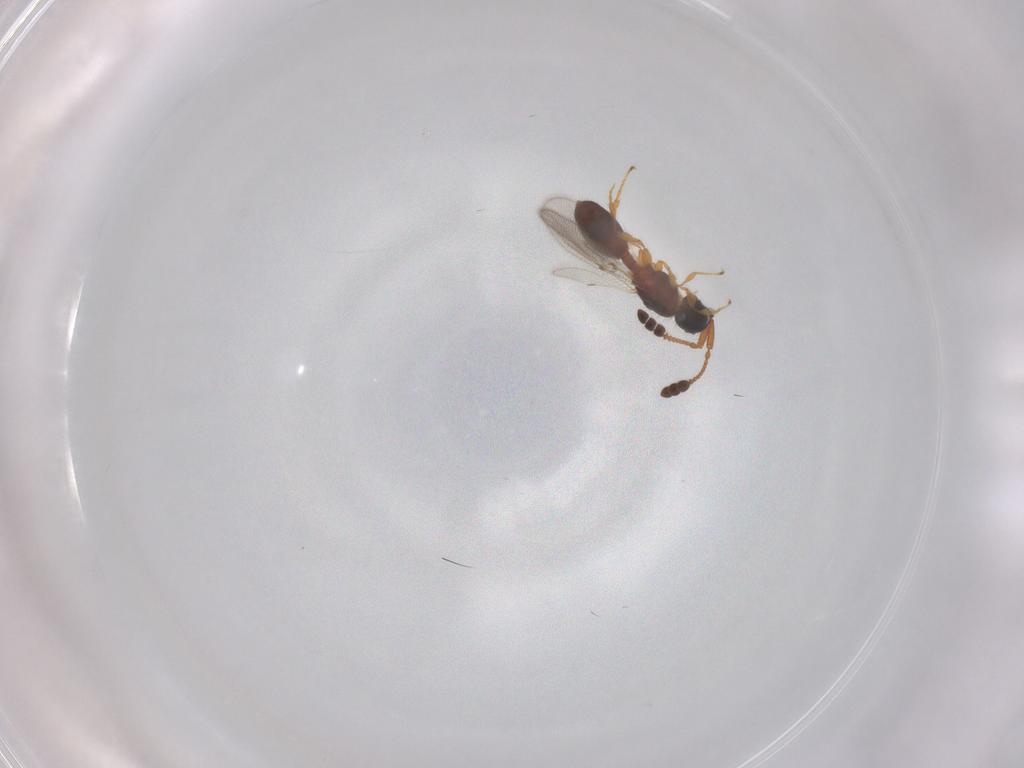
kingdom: Animalia
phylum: Arthropoda
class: Insecta
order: Hymenoptera
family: Diapriidae
